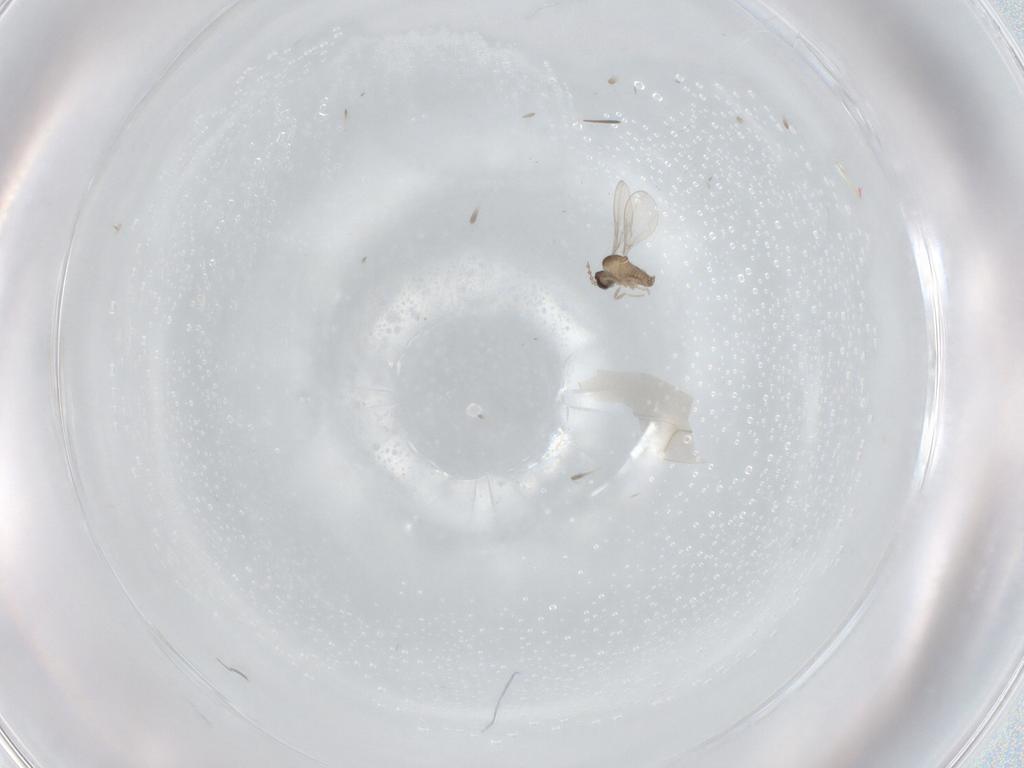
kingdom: Animalia
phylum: Arthropoda
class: Insecta
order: Diptera
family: Cecidomyiidae
